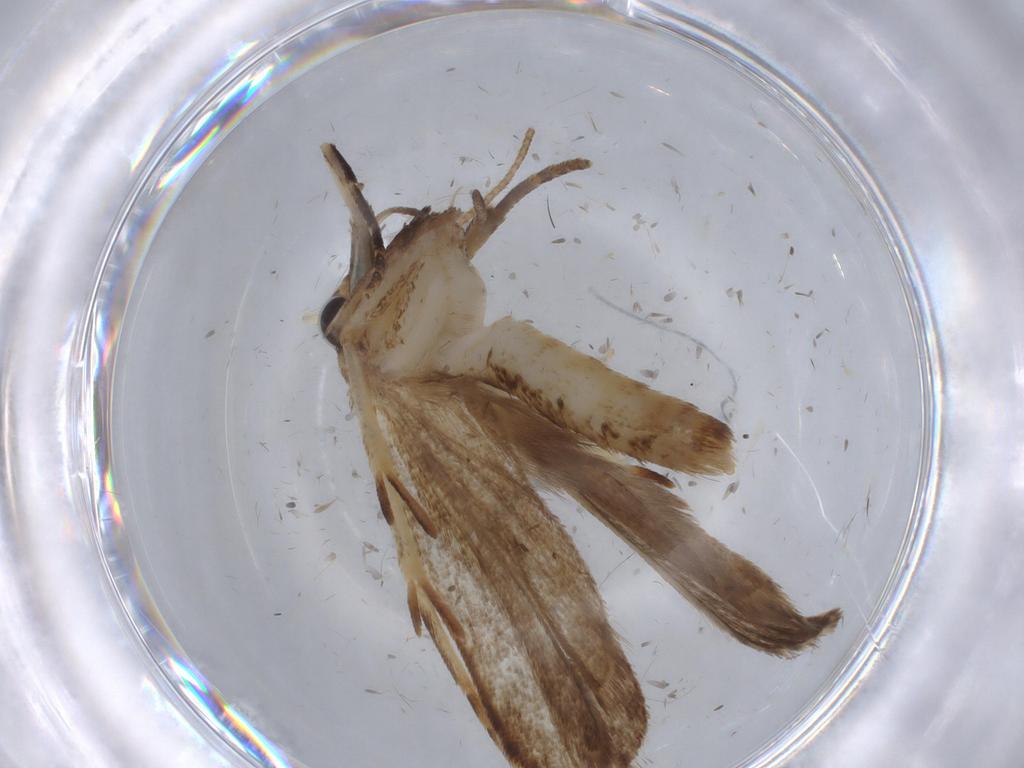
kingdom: Animalia
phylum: Arthropoda
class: Insecta
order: Lepidoptera
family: Gelechiidae
